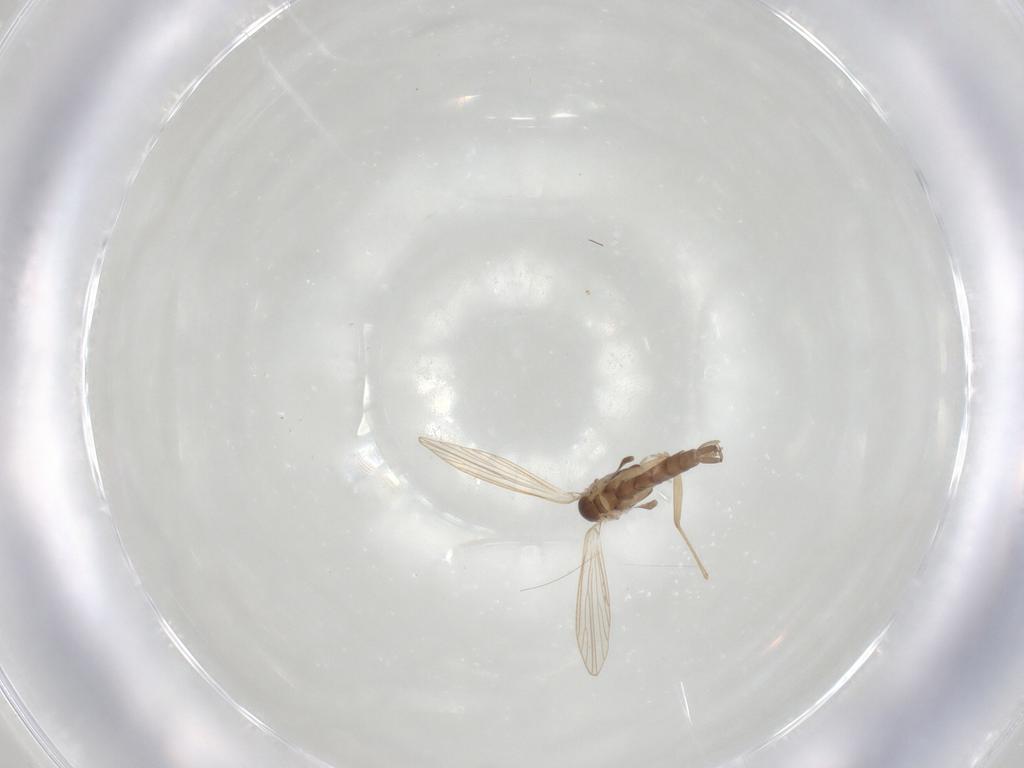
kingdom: Animalia
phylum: Arthropoda
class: Insecta
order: Diptera
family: Psychodidae
